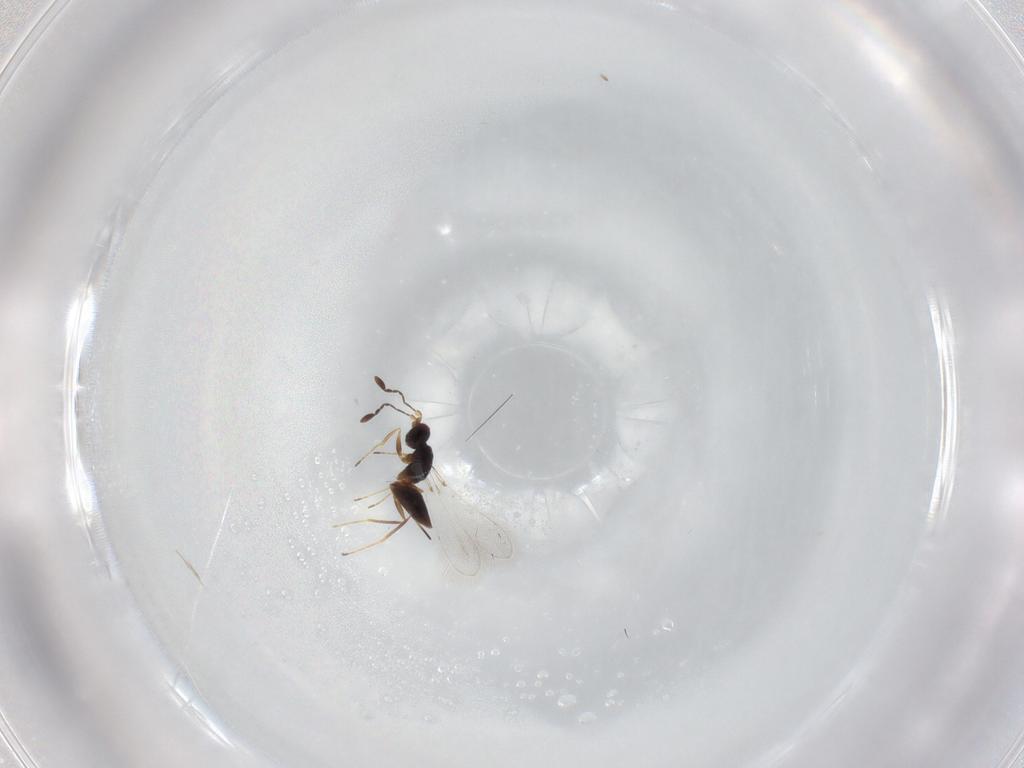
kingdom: Animalia
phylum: Arthropoda
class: Insecta
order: Hymenoptera
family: Mymaridae
